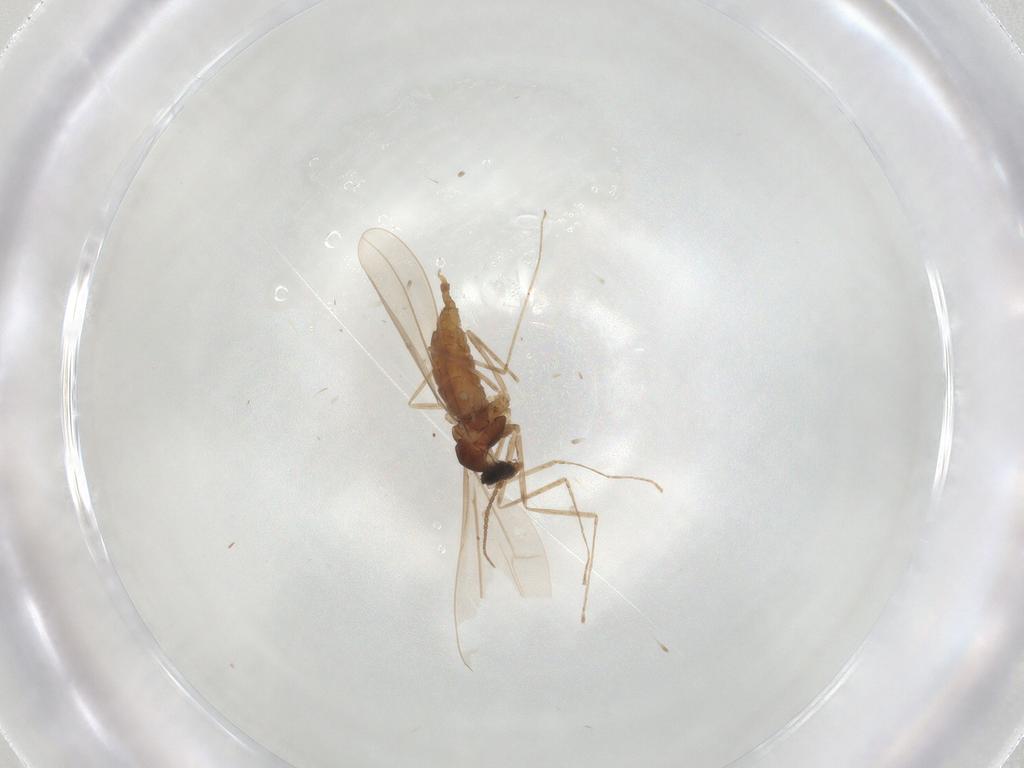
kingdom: Animalia
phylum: Arthropoda
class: Insecta
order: Diptera
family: Cecidomyiidae
